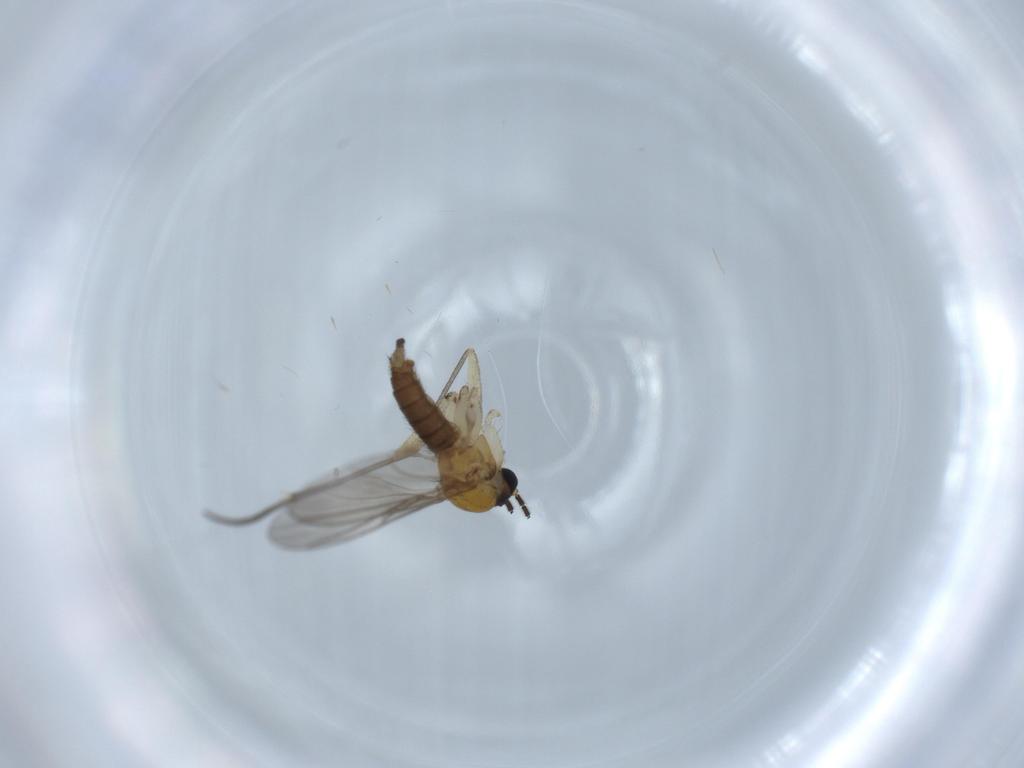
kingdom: Animalia
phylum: Arthropoda
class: Insecta
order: Diptera
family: Sciaridae
